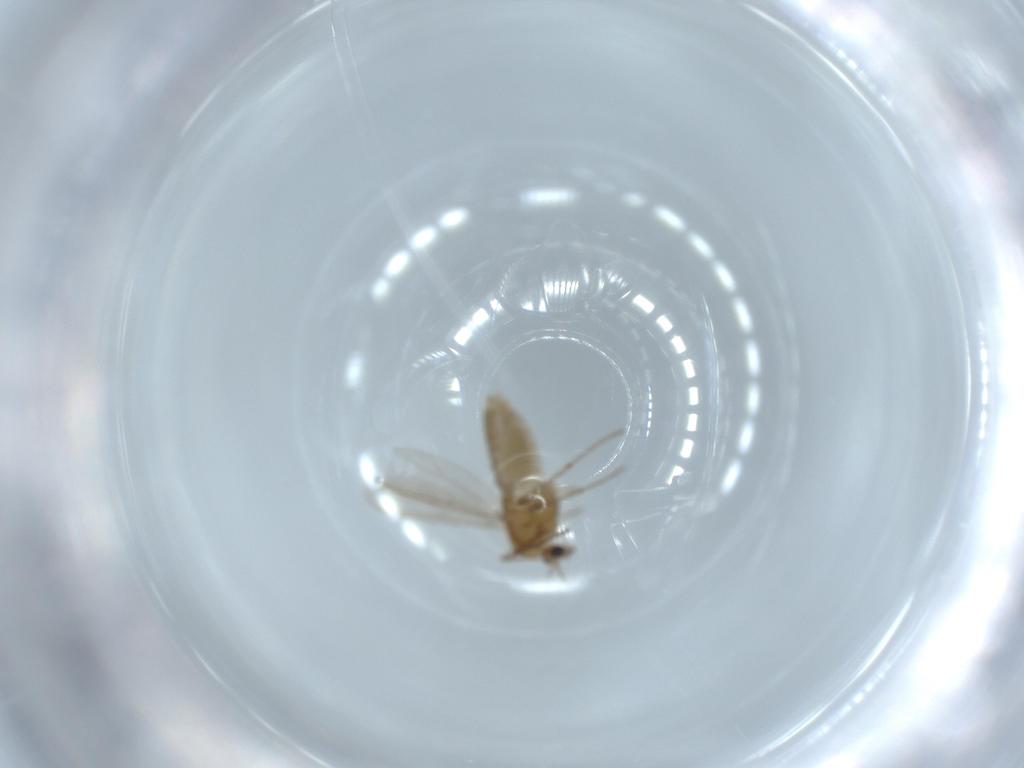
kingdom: Animalia
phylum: Arthropoda
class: Insecta
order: Diptera
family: Chironomidae
